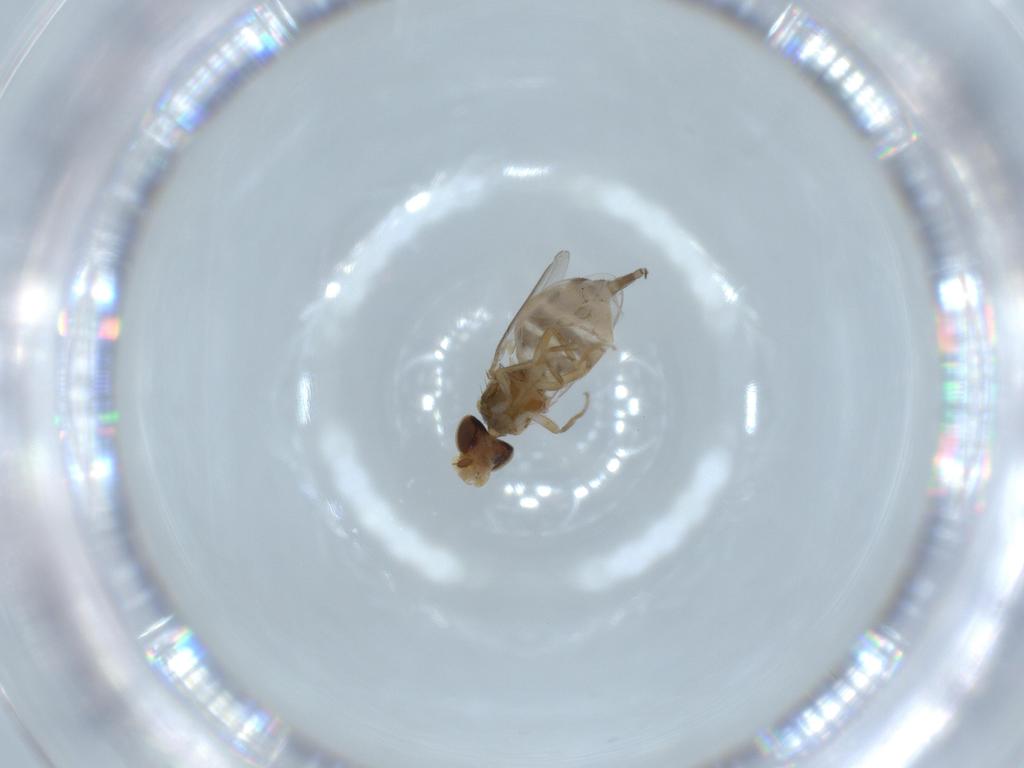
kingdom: Animalia
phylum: Arthropoda
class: Insecta
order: Diptera
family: Chloropidae
